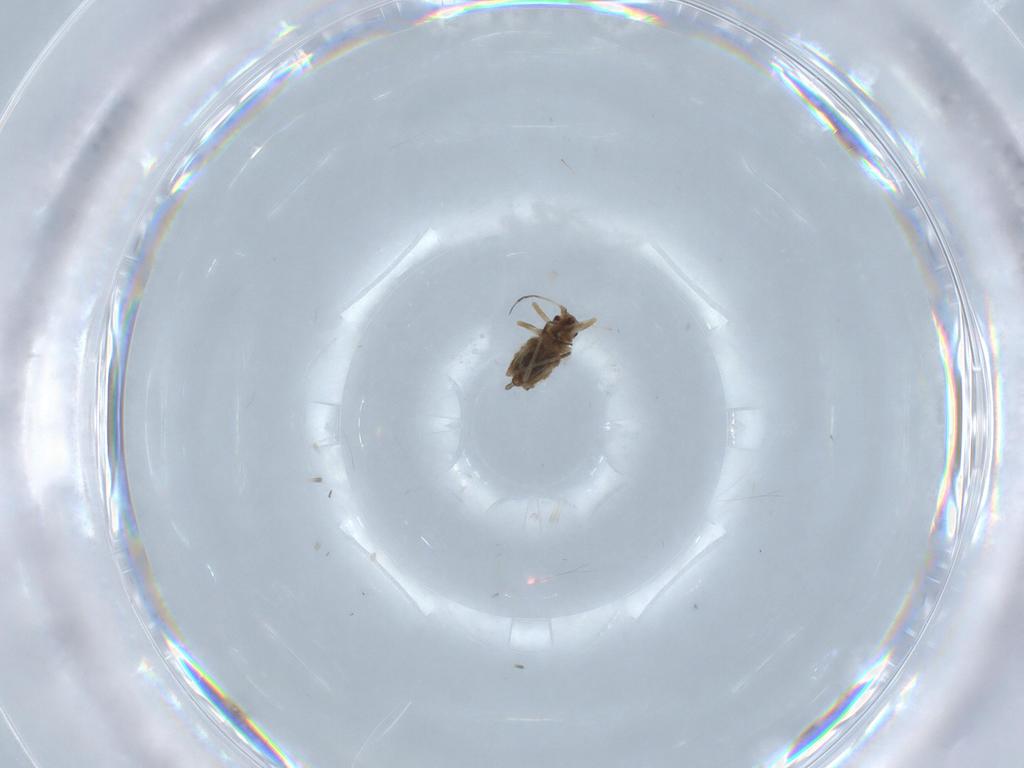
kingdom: Animalia
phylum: Arthropoda
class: Insecta
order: Hemiptera
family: Aphididae
